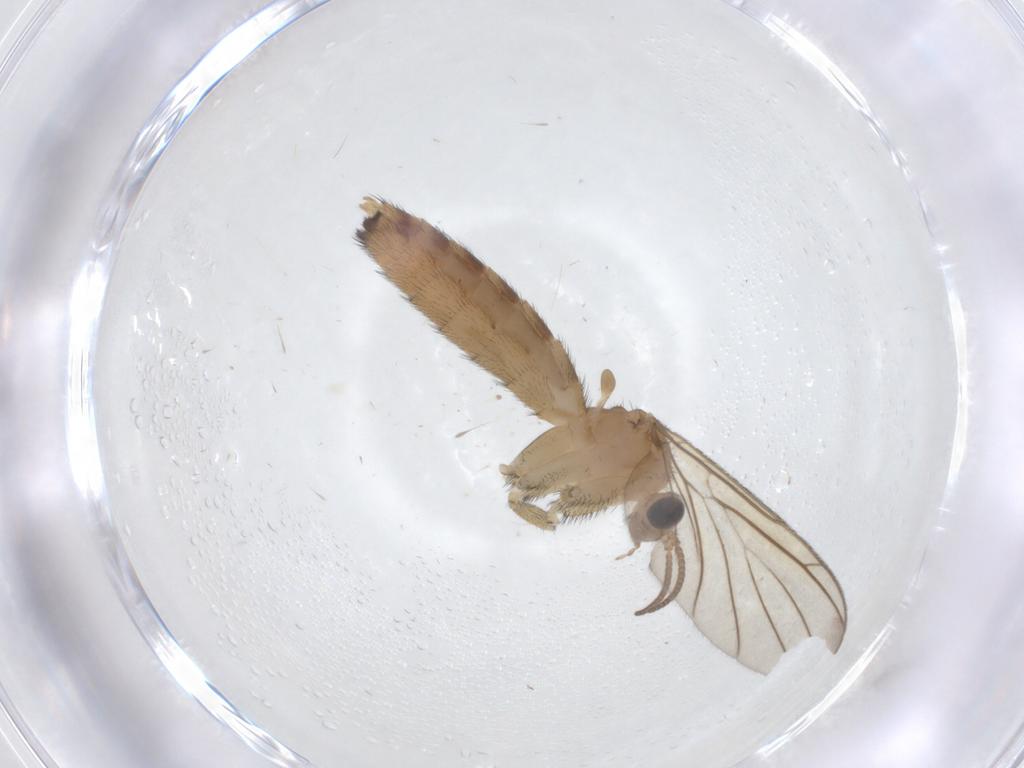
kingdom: Animalia
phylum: Arthropoda
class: Insecta
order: Diptera
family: Keroplatidae
